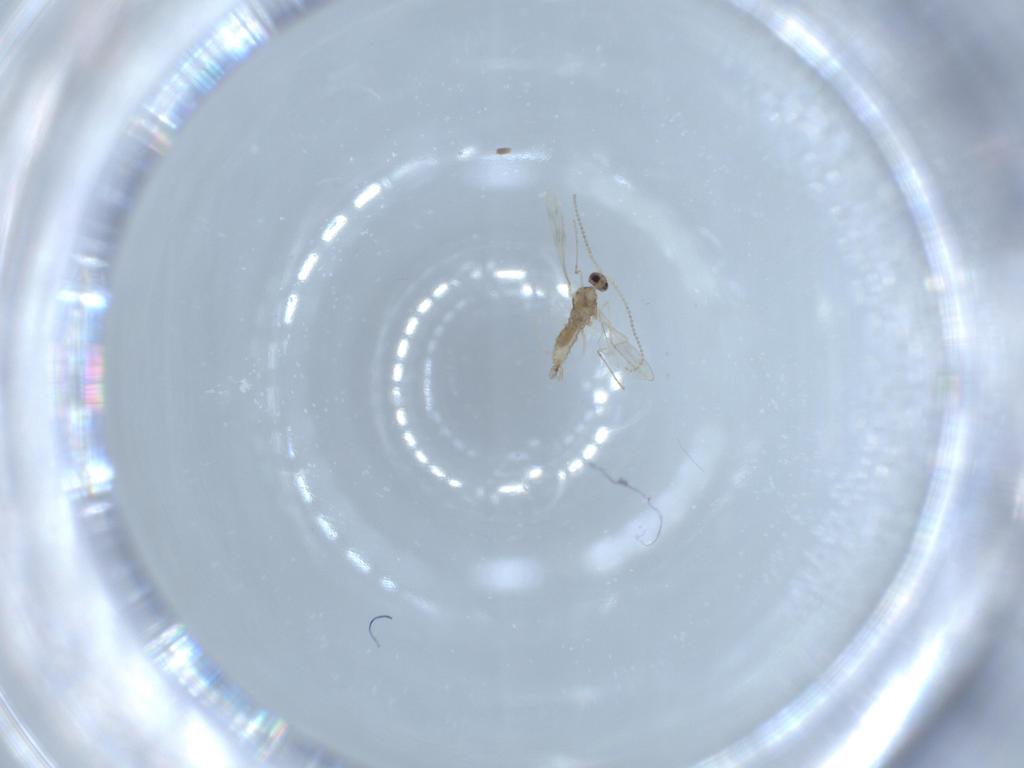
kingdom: Animalia
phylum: Arthropoda
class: Insecta
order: Diptera
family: Cecidomyiidae
